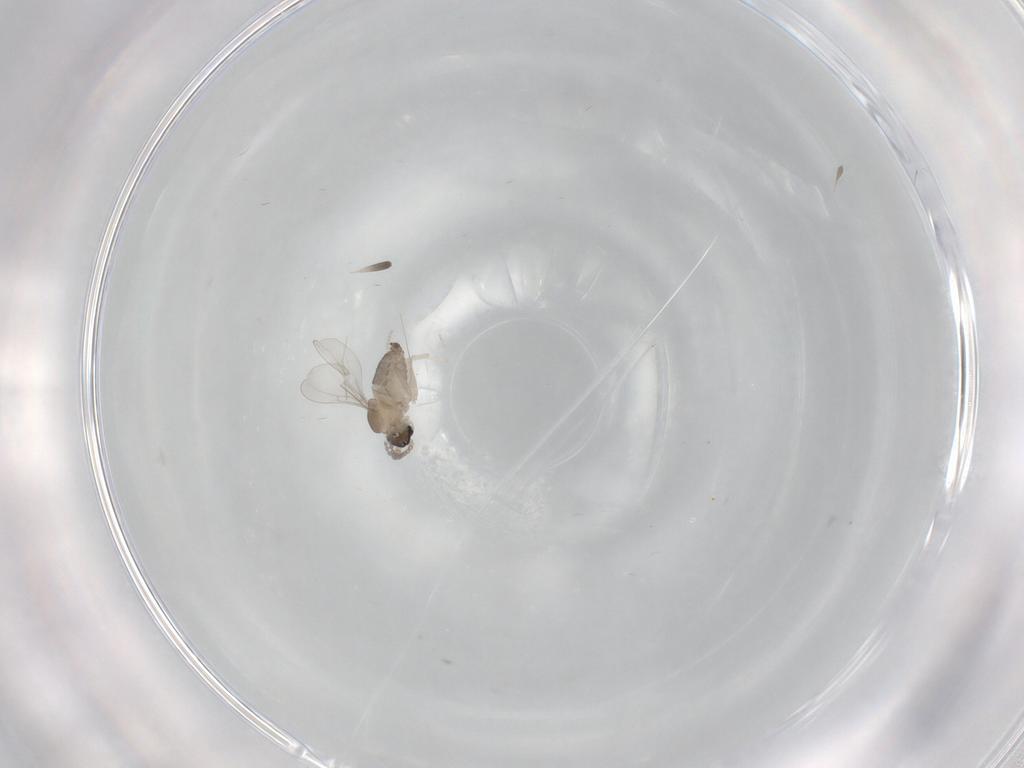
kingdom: Animalia
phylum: Arthropoda
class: Insecta
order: Diptera
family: Cecidomyiidae
